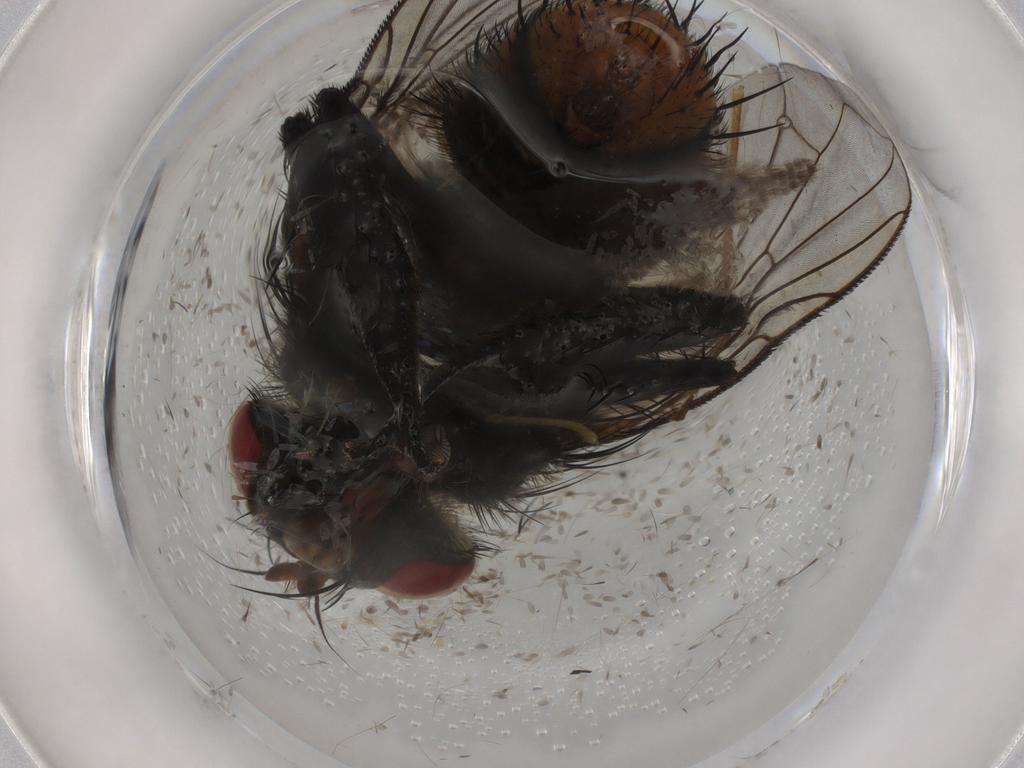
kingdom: Animalia
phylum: Arthropoda
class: Insecta
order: Diptera
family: Tachinidae
